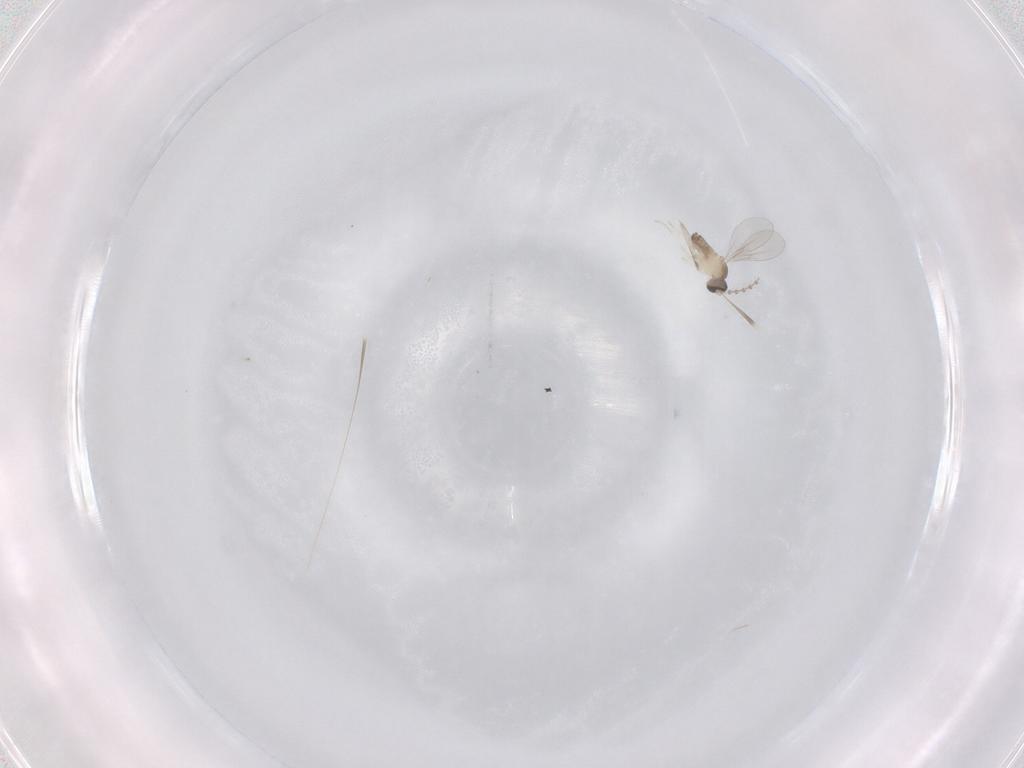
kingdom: Animalia
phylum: Arthropoda
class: Insecta
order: Diptera
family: Cecidomyiidae
